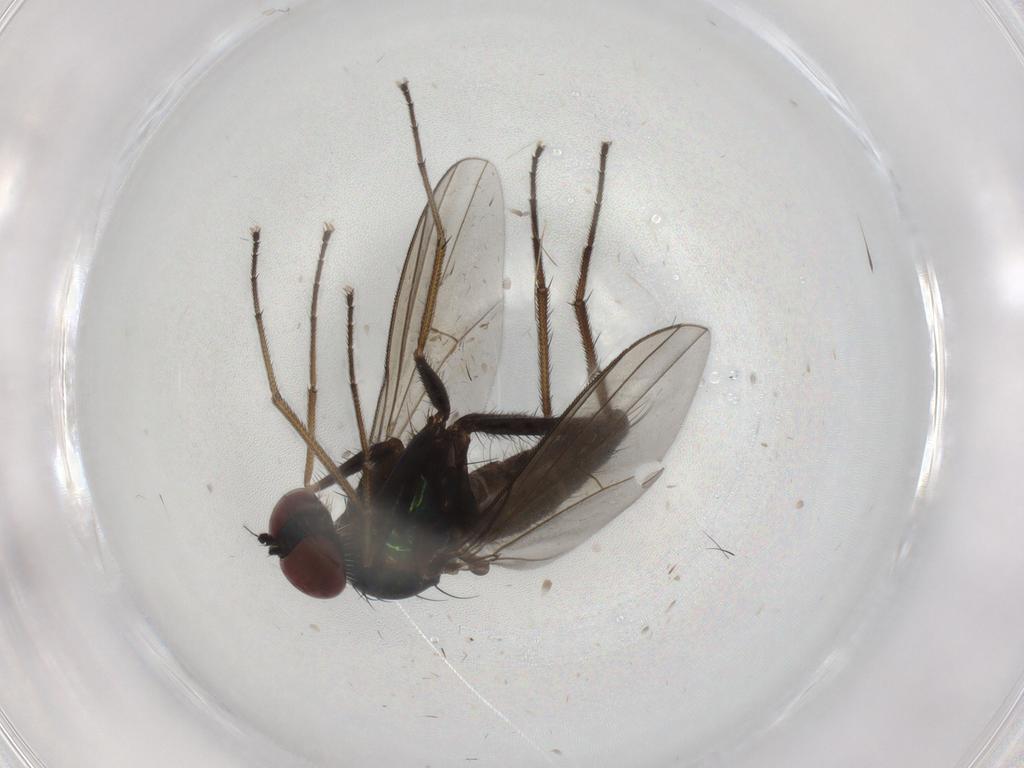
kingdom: Animalia
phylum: Arthropoda
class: Insecta
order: Diptera
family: Dolichopodidae
